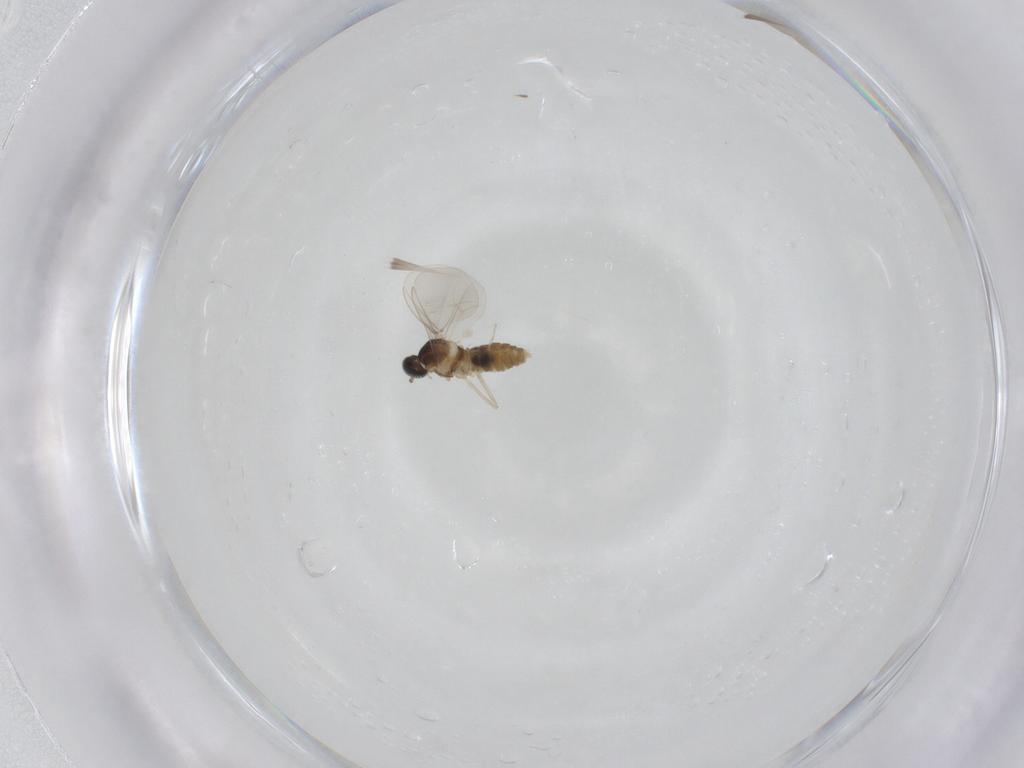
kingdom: Animalia
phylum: Arthropoda
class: Insecta
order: Diptera
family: Cecidomyiidae
